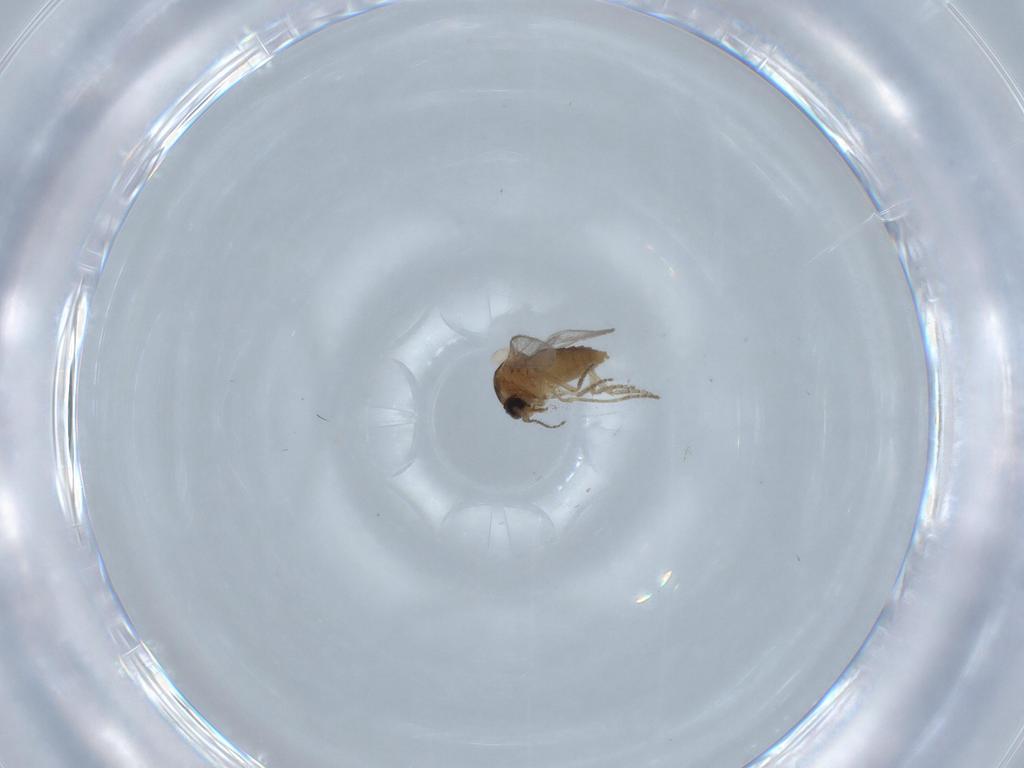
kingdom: Animalia
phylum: Arthropoda
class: Insecta
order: Diptera
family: Ceratopogonidae
